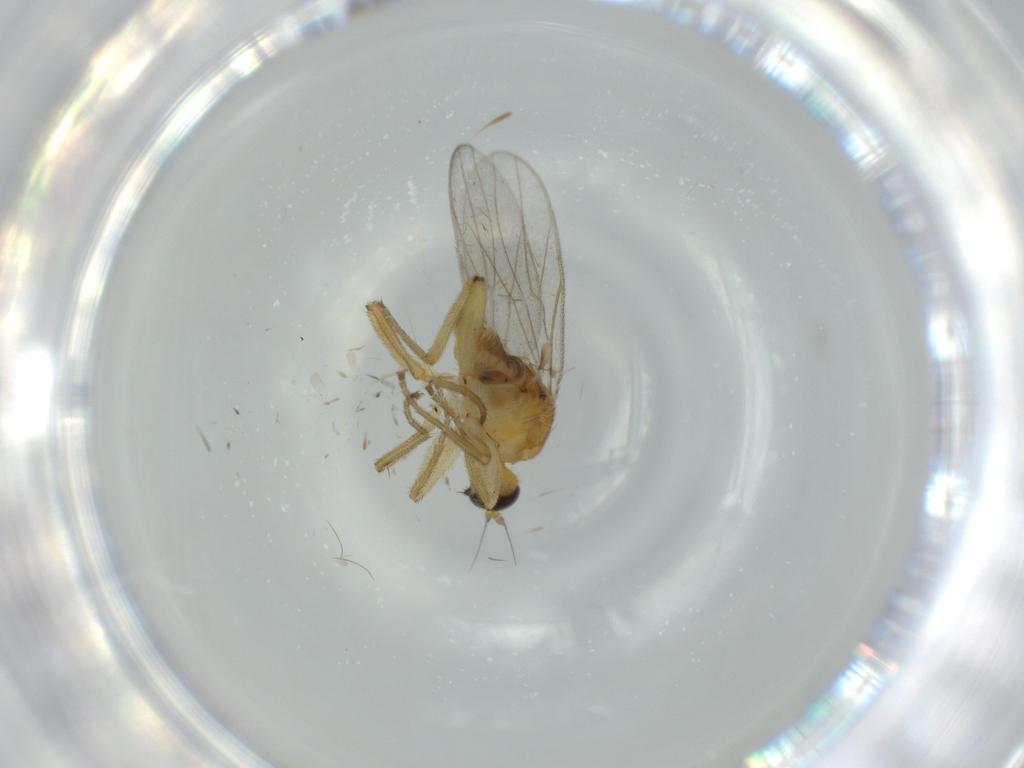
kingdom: Animalia
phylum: Arthropoda
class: Insecta
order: Diptera
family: Hybotidae
